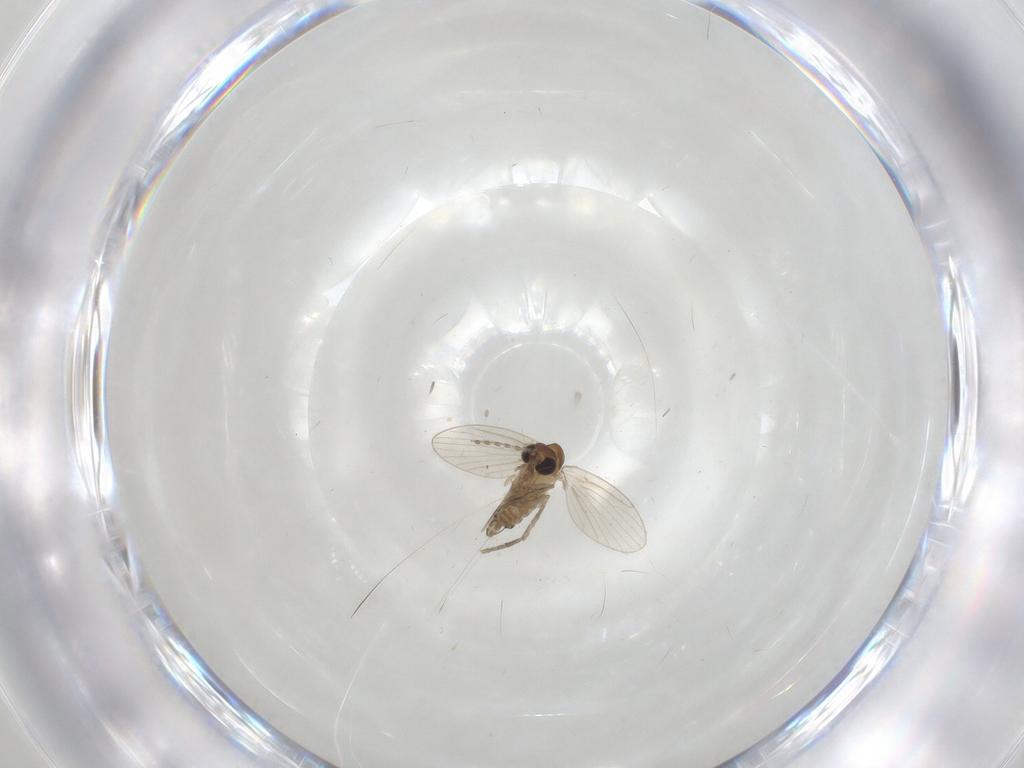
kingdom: Animalia
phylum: Arthropoda
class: Insecta
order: Diptera
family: Psychodidae
